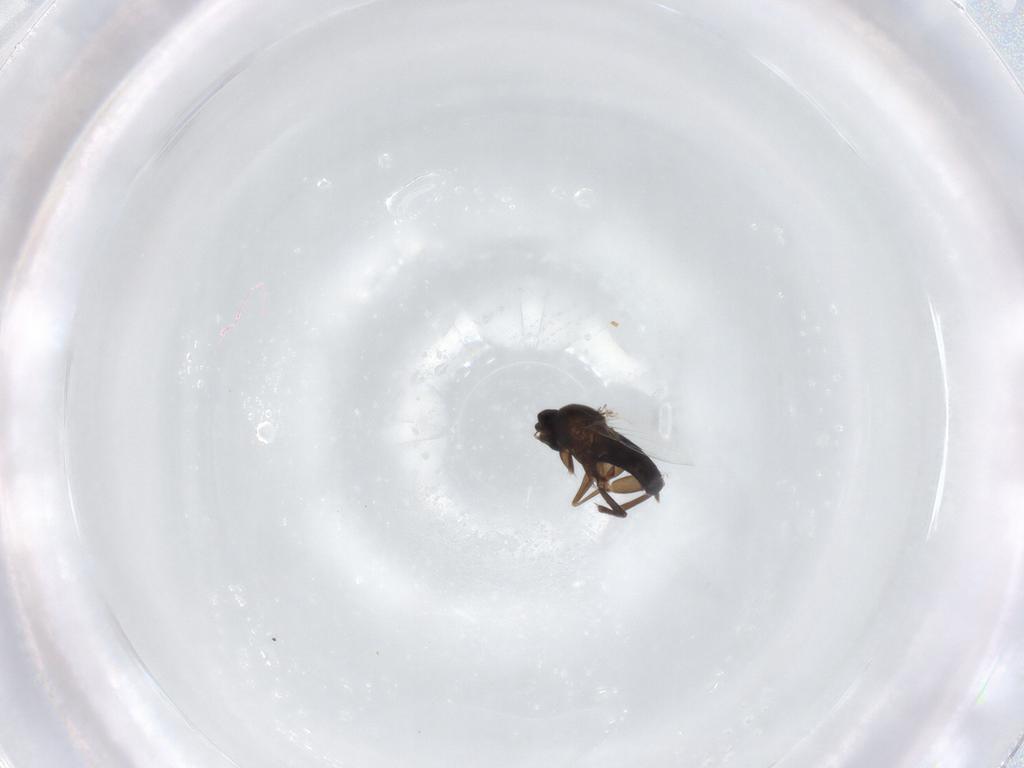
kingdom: Animalia
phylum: Arthropoda
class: Insecta
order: Diptera
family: Phoridae
